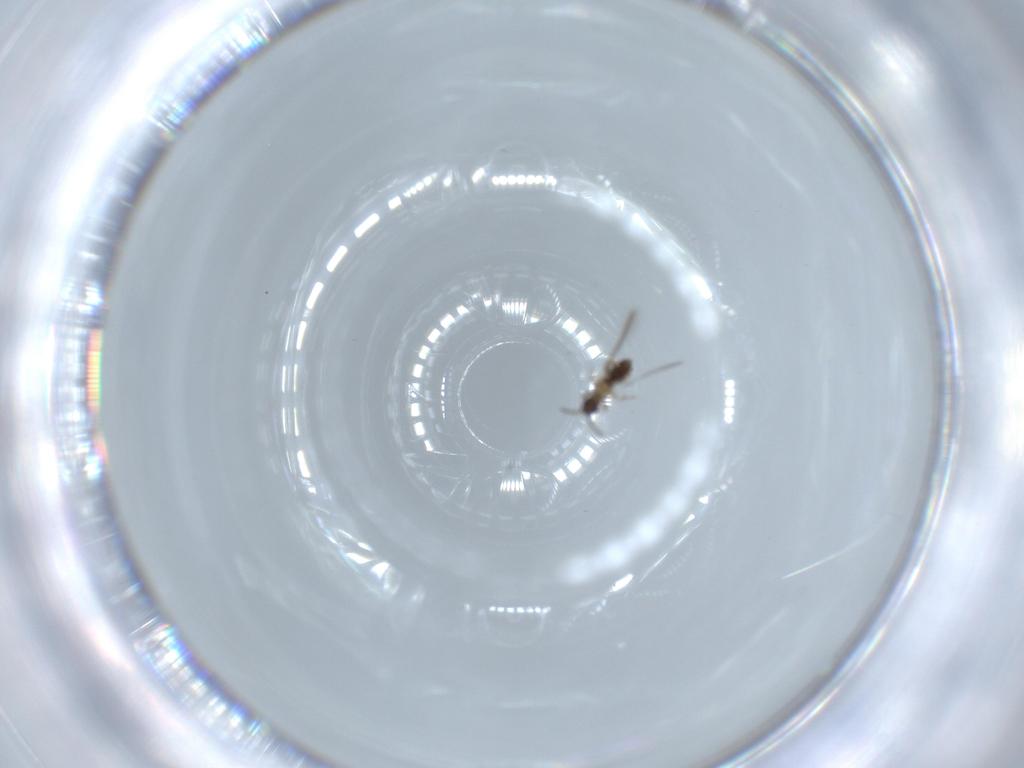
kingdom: Animalia
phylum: Arthropoda
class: Insecta
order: Hymenoptera
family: Mymaridae
